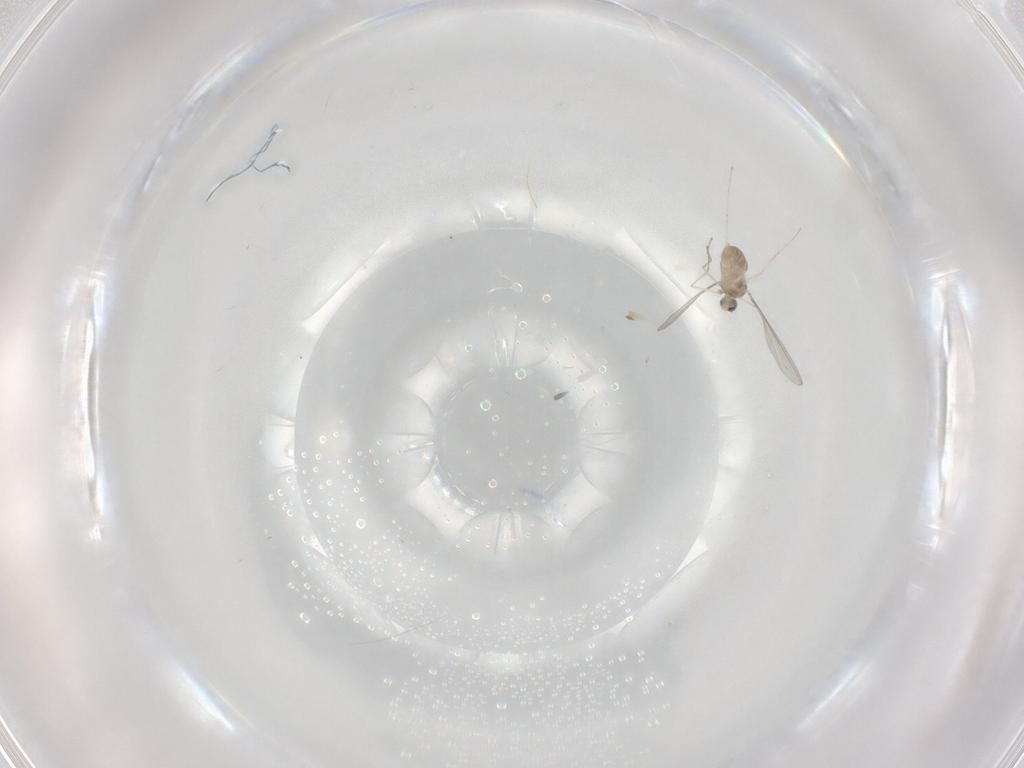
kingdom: Animalia
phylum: Arthropoda
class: Insecta
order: Diptera
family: Cecidomyiidae
